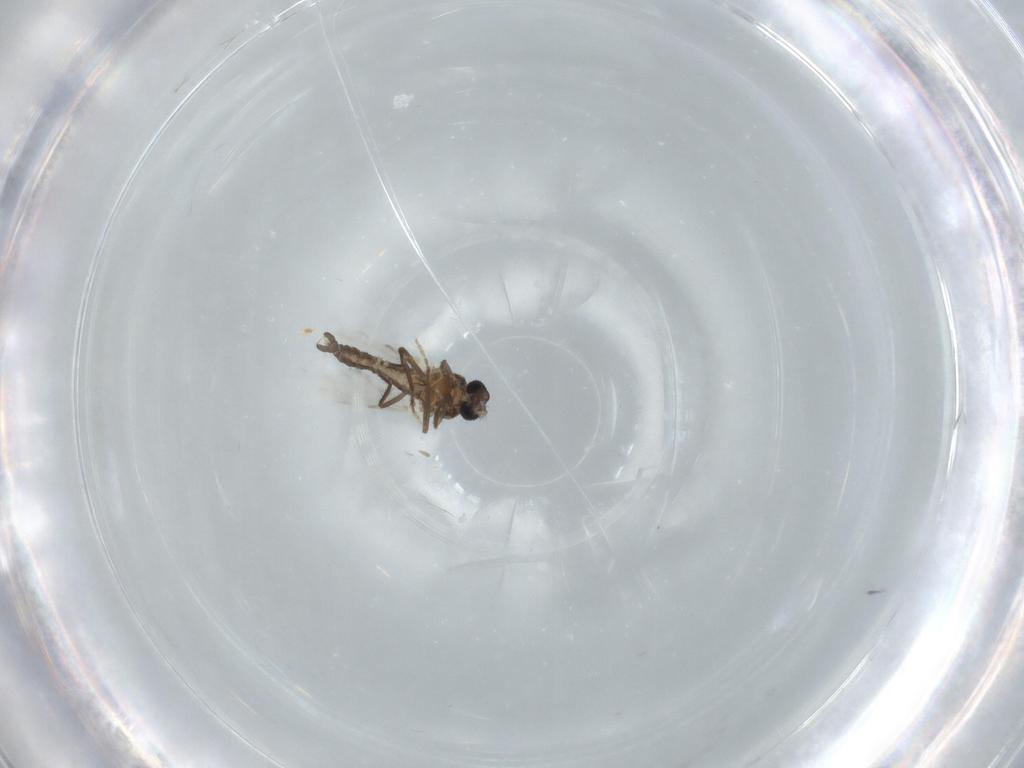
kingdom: Animalia
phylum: Arthropoda
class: Insecta
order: Diptera
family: Ceratopogonidae
